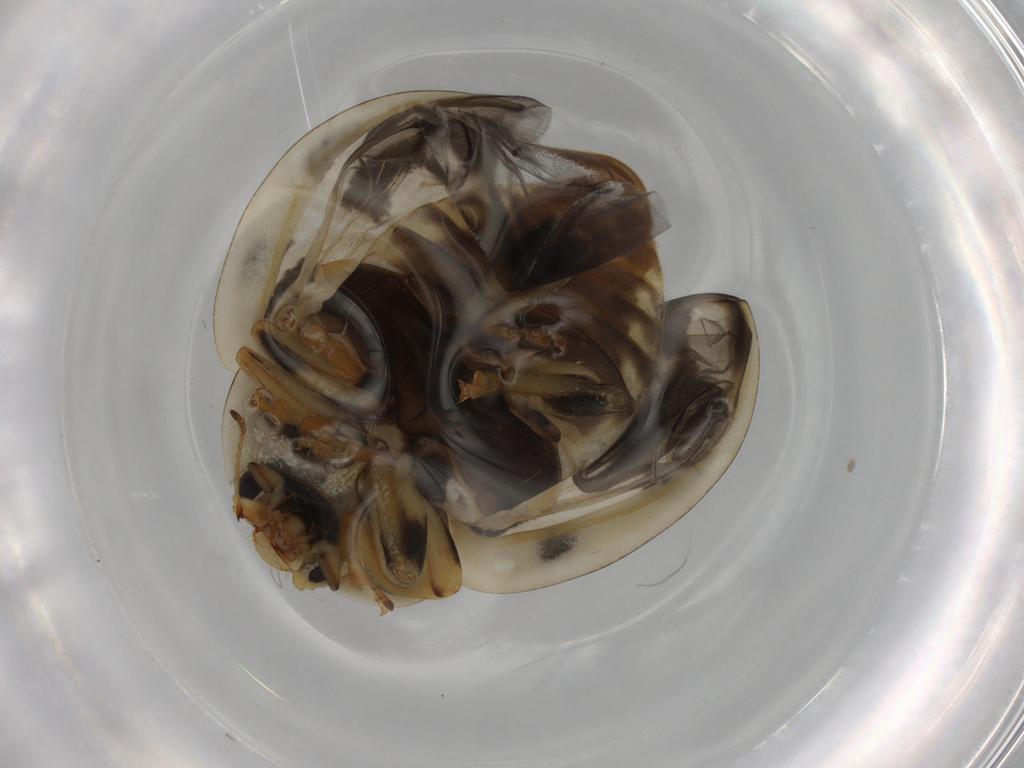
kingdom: Animalia
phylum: Arthropoda
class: Insecta
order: Coleoptera
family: Coccinellidae
